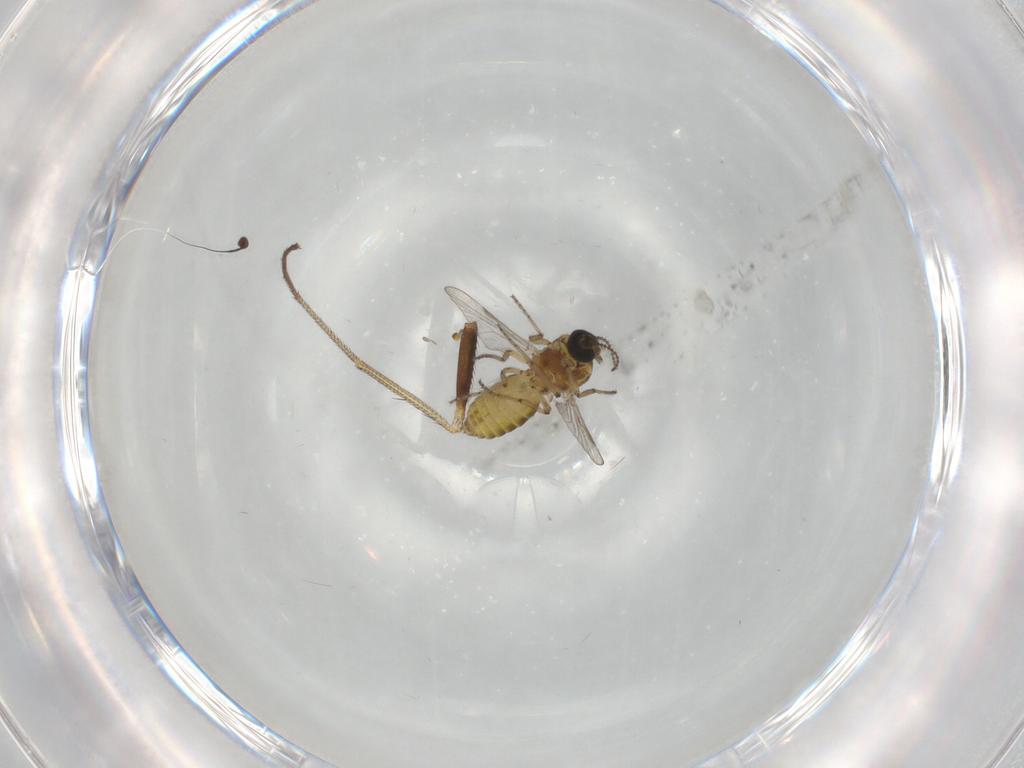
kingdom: Animalia
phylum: Arthropoda
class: Insecta
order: Diptera
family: Ceratopogonidae
